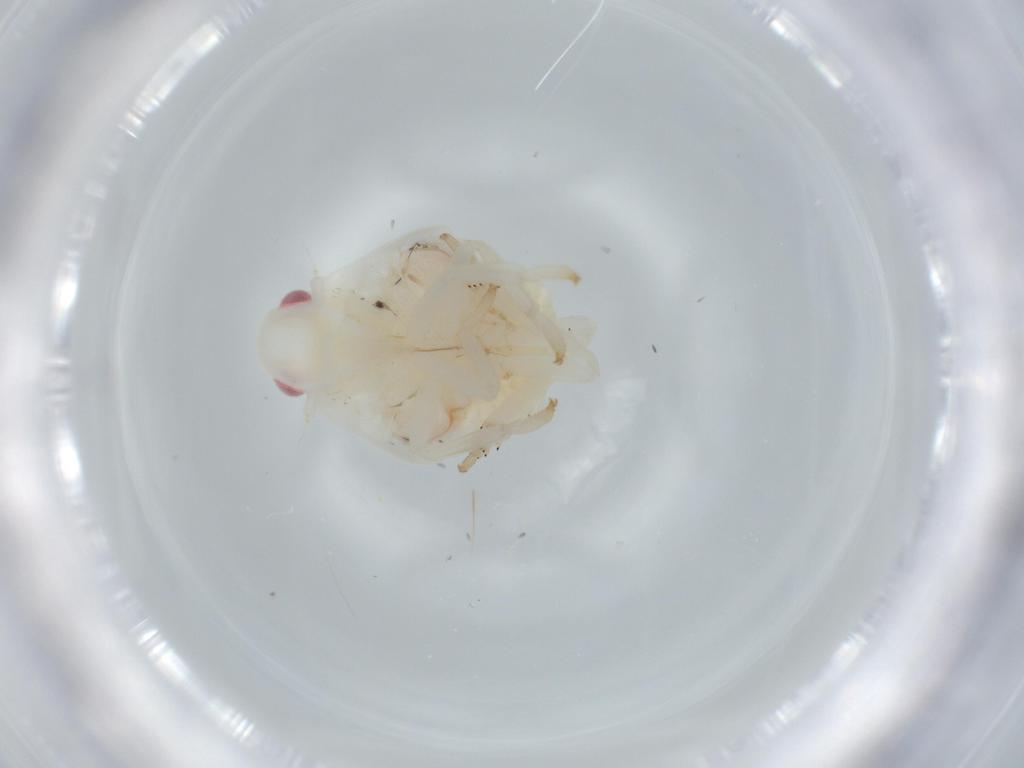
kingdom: Animalia
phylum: Arthropoda
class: Insecta
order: Hemiptera
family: Flatidae
